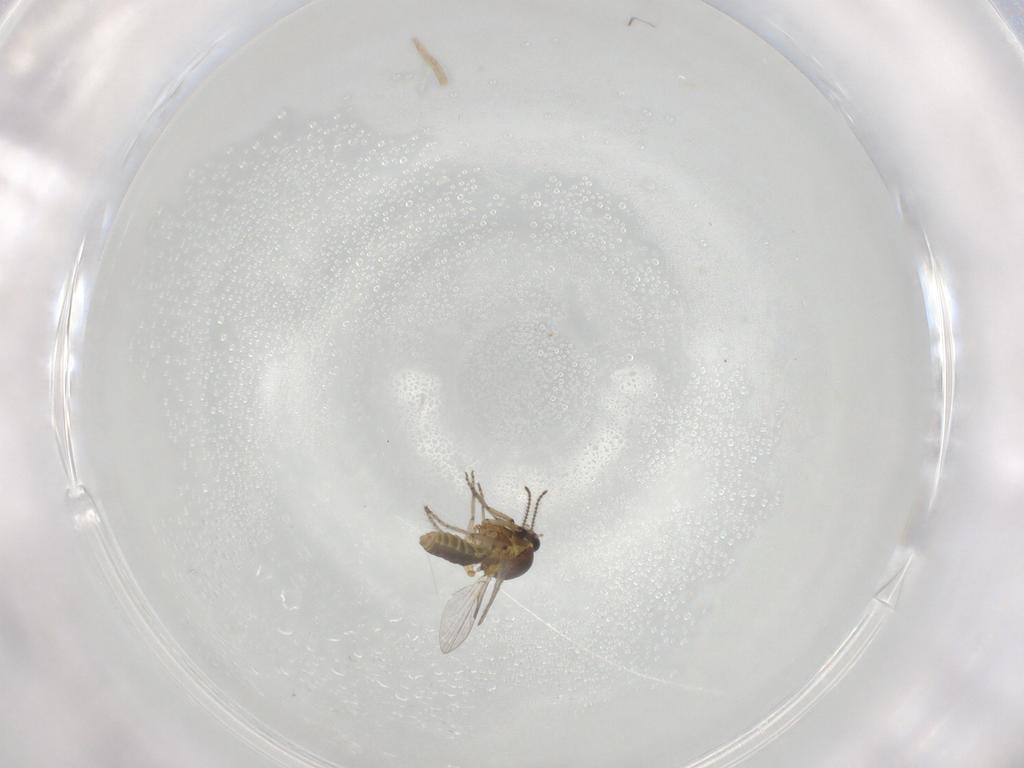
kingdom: Animalia
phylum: Arthropoda
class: Insecta
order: Diptera
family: Ceratopogonidae
